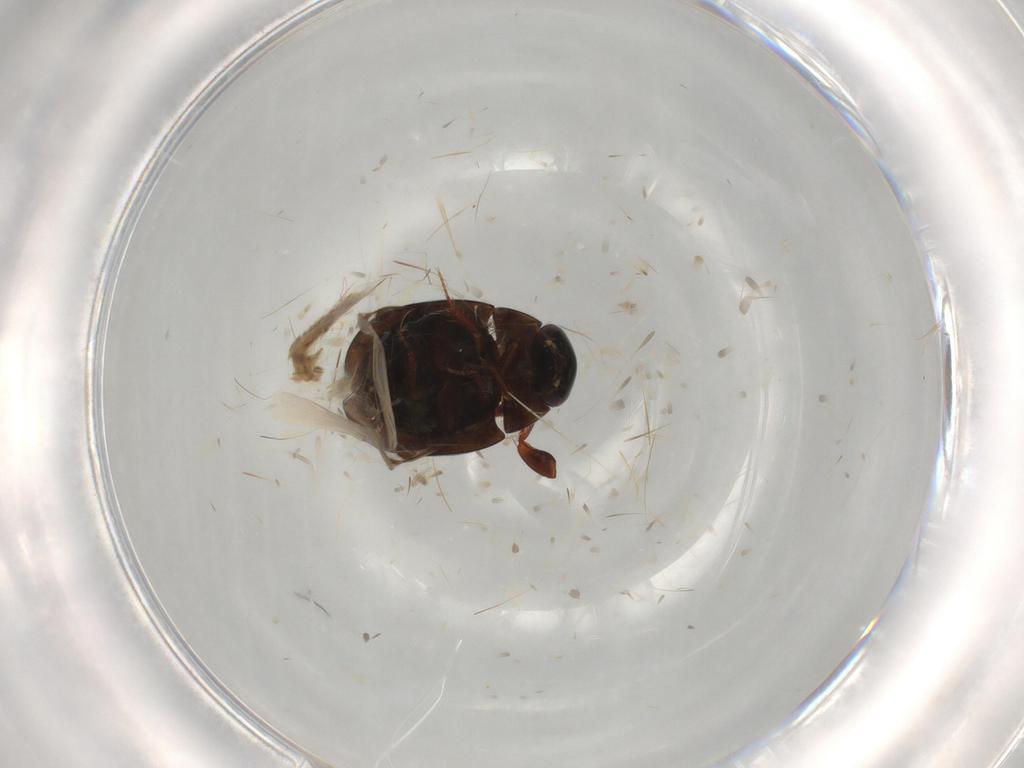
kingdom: Animalia
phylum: Arthropoda
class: Insecta
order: Coleoptera
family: Hydrophilidae
